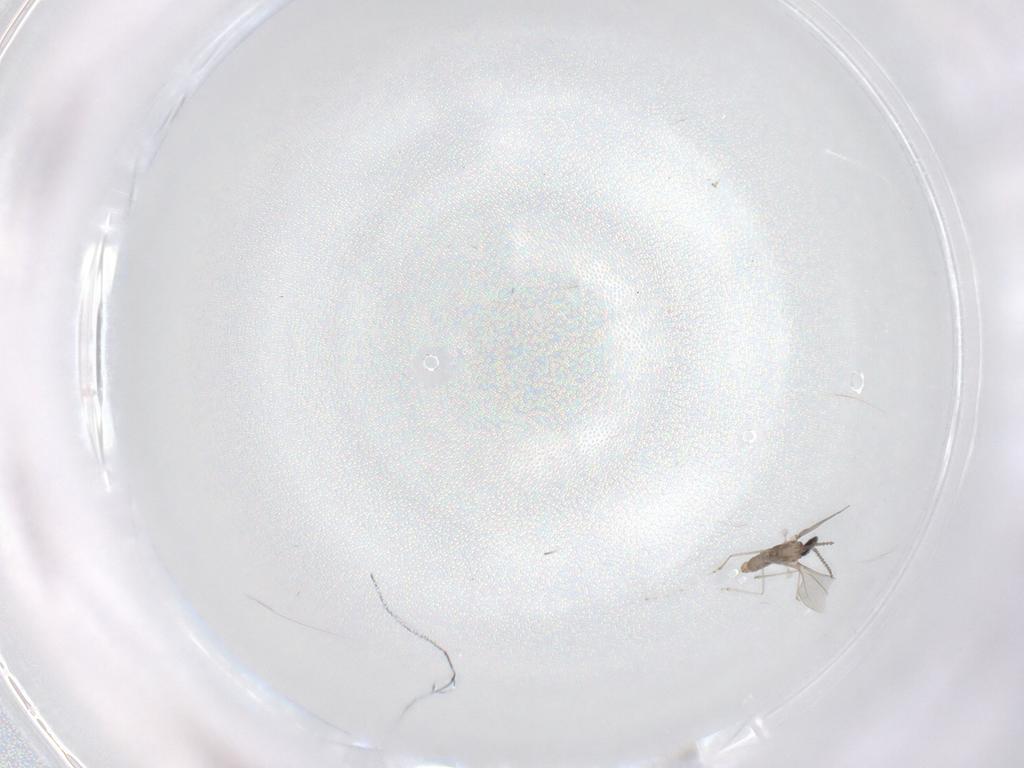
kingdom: Animalia
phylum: Arthropoda
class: Insecta
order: Diptera
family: Cecidomyiidae
